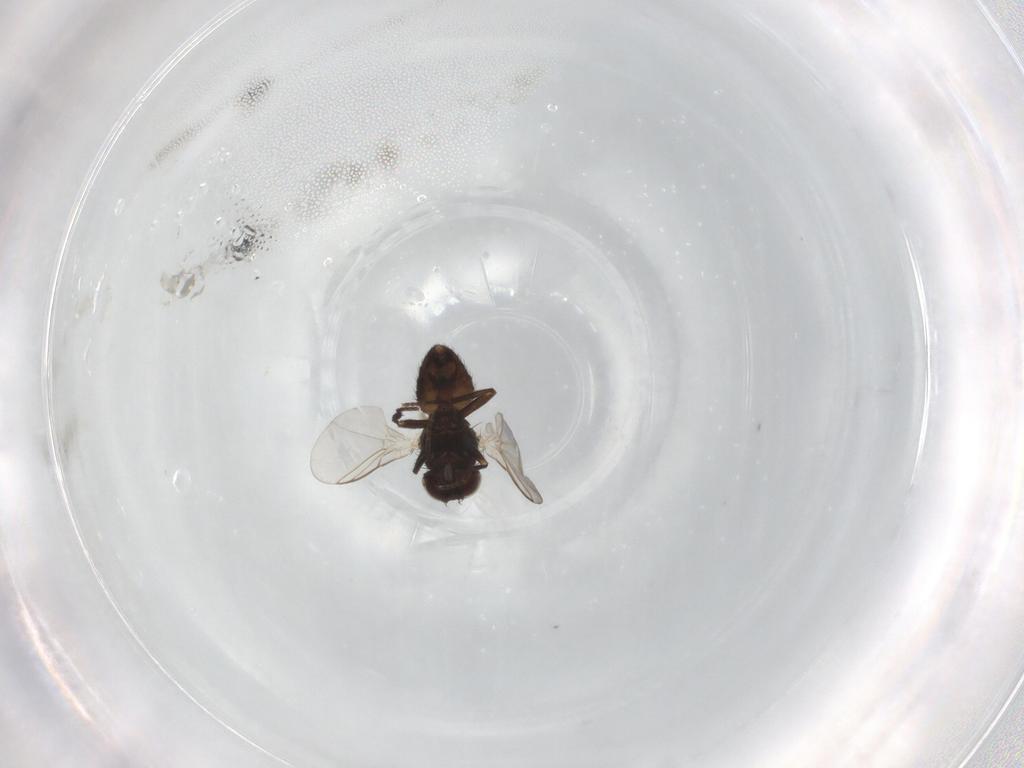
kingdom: Animalia
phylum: Arthropoda
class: Insecta
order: Diptera
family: Agromyzidae
